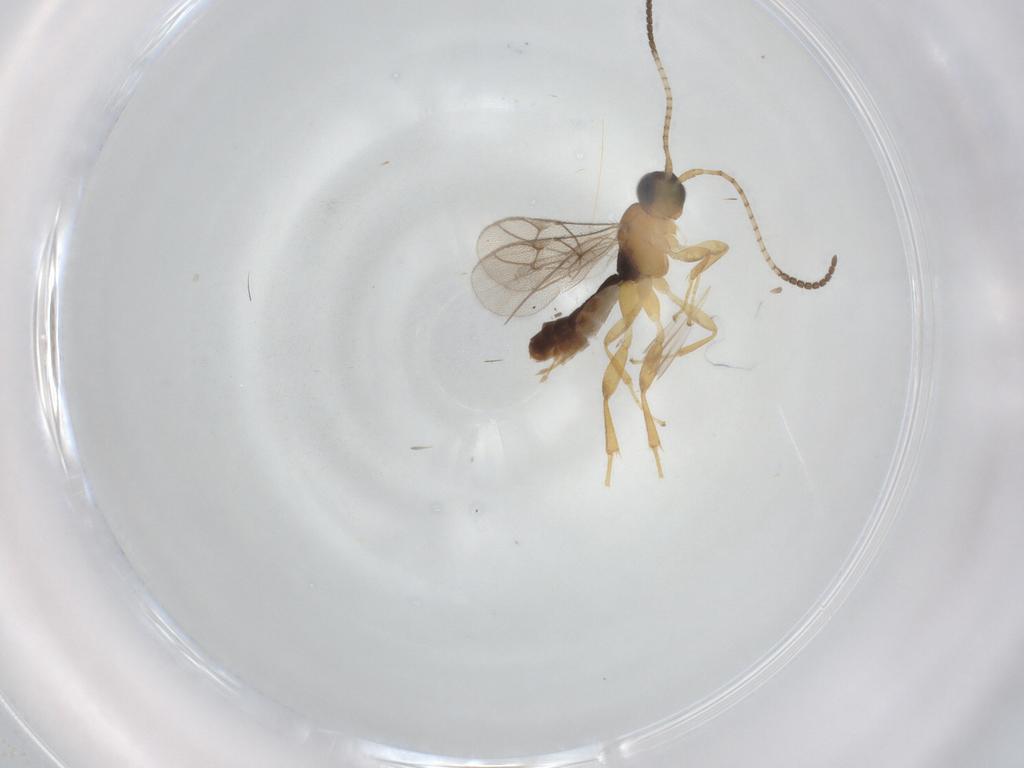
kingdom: Animalia
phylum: Arthropoda
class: Insecta
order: Hymenoptera
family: Ichneumonidae
